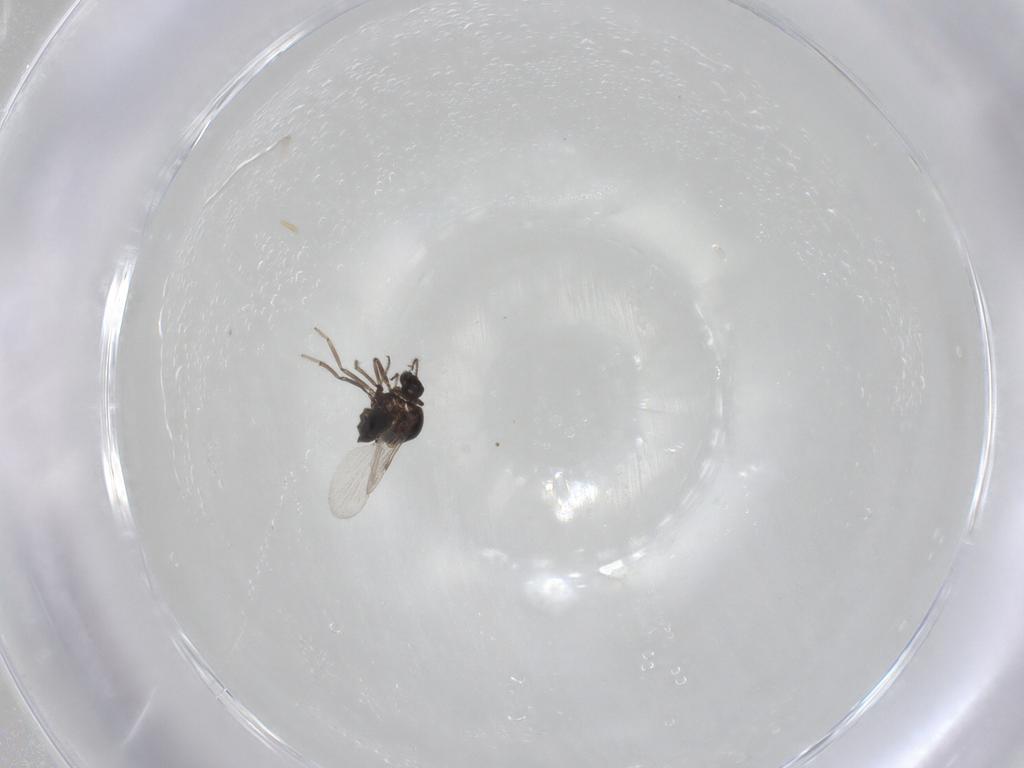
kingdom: Animalia
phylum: Arthropoda
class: Insecta
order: Diptera
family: Ceratopogonidae
